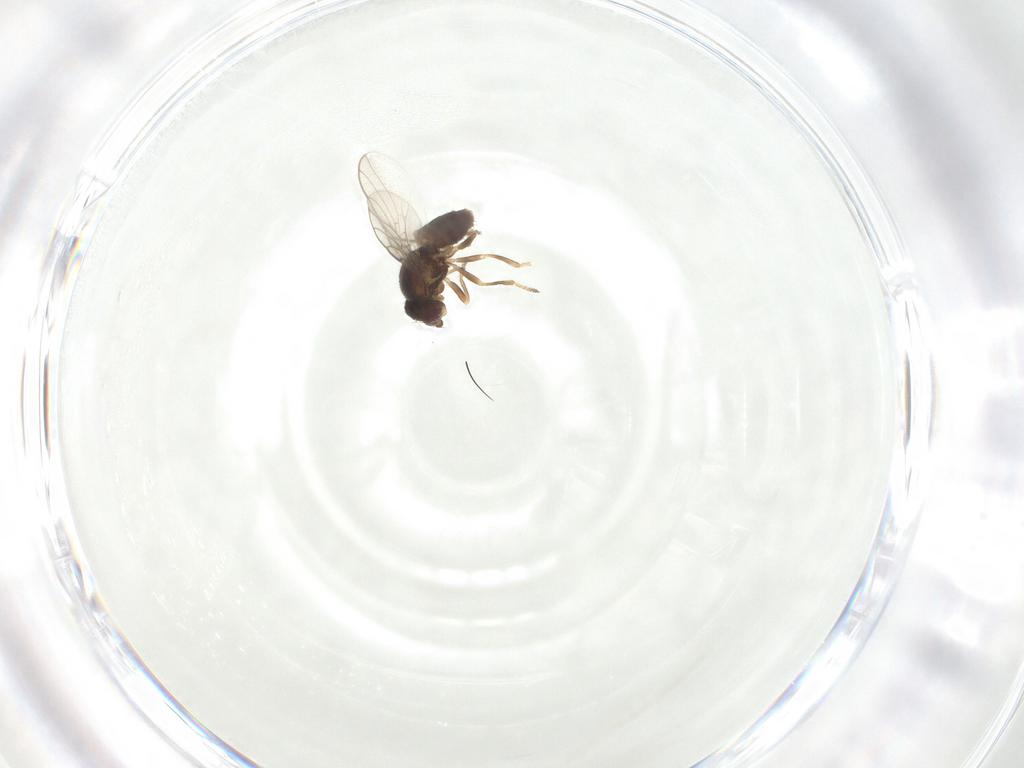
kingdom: Animalia
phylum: Arthropoda
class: Insecta
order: Diptera
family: Chloropidae
